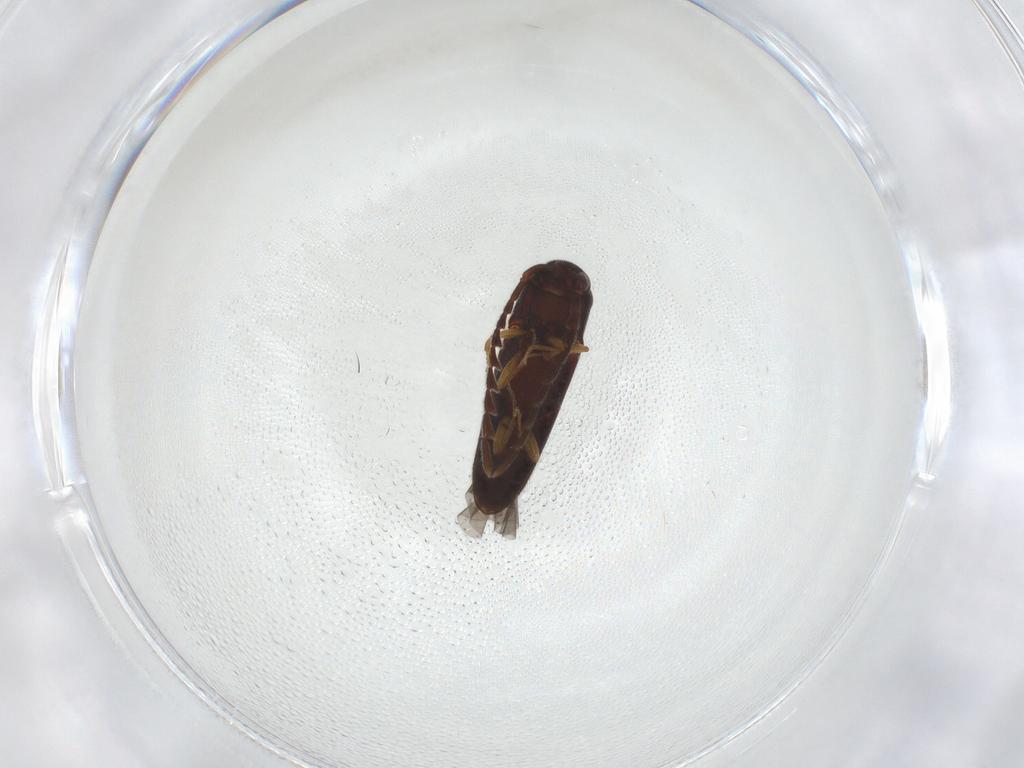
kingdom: Animalia
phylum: Arthropoda
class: Insecta
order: Coleoptera
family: Eucnemidae
